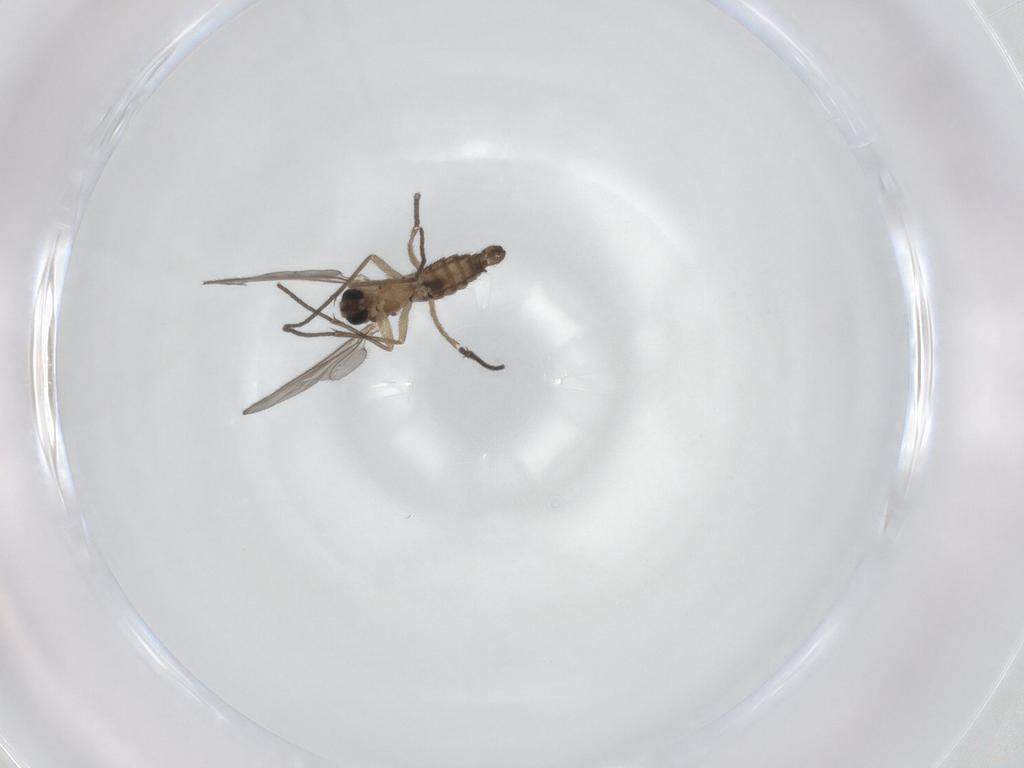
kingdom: Animalia
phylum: Arthropoda
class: Insecta
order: Diptera
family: Sciaridae
